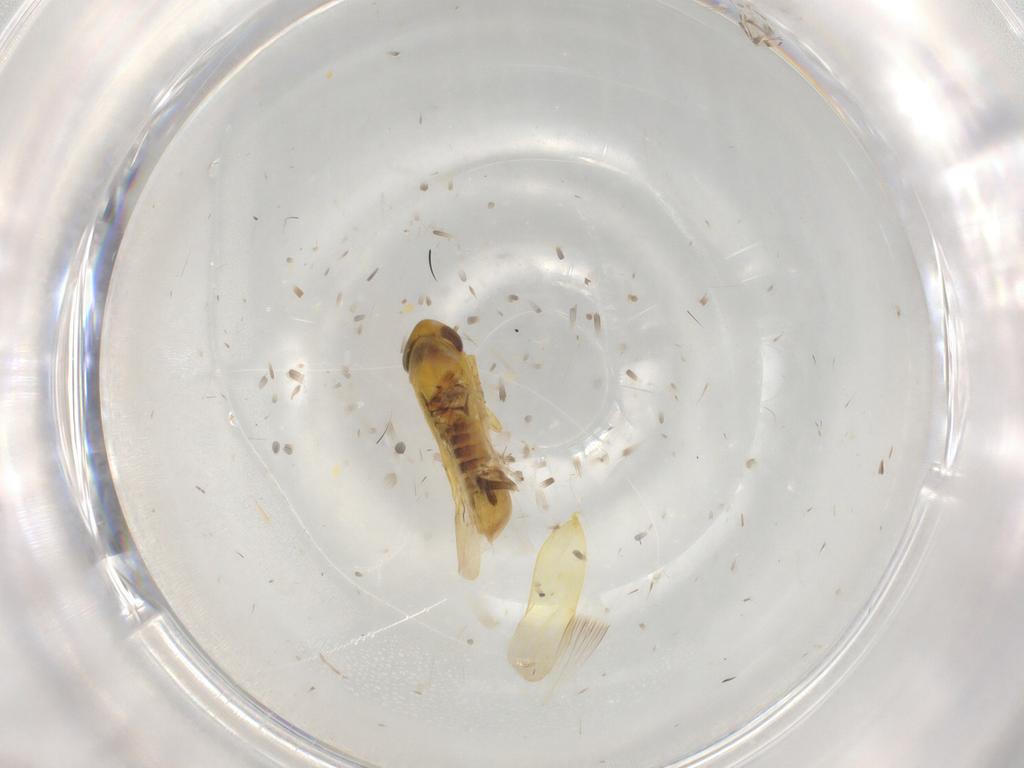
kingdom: Animalia
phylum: Arthropoda
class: Insecta
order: Hemiptera
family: Cicadellidae
